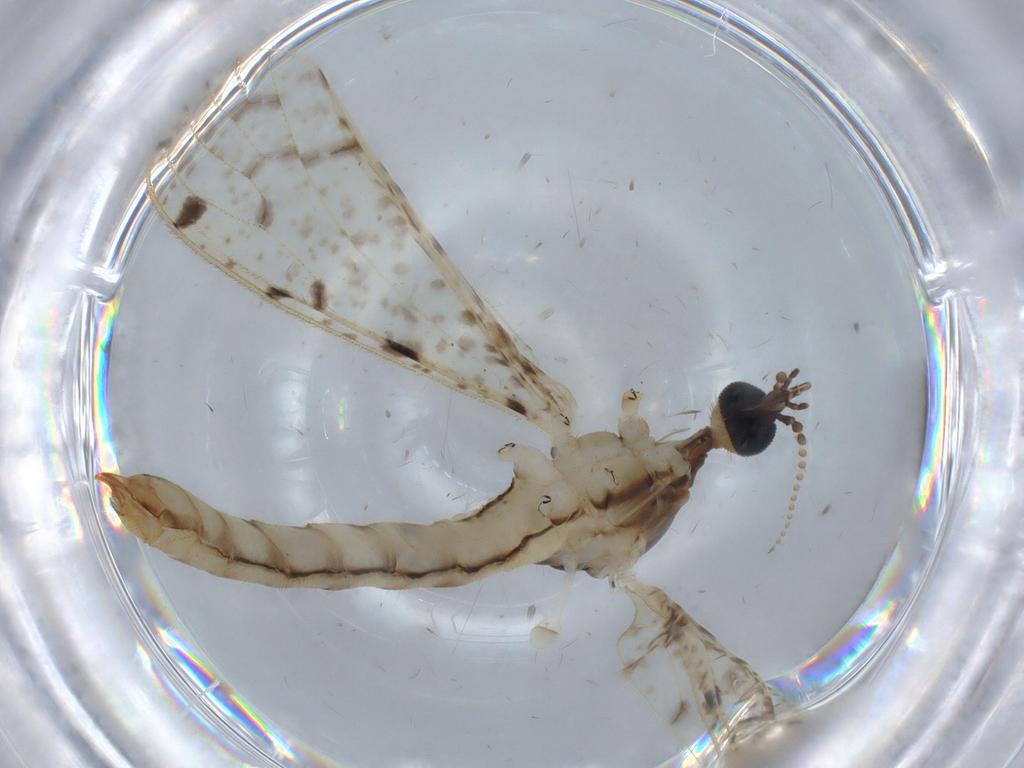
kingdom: Animalia
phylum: Arthropoda
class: Insecta
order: Diptera
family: Chironomidae
